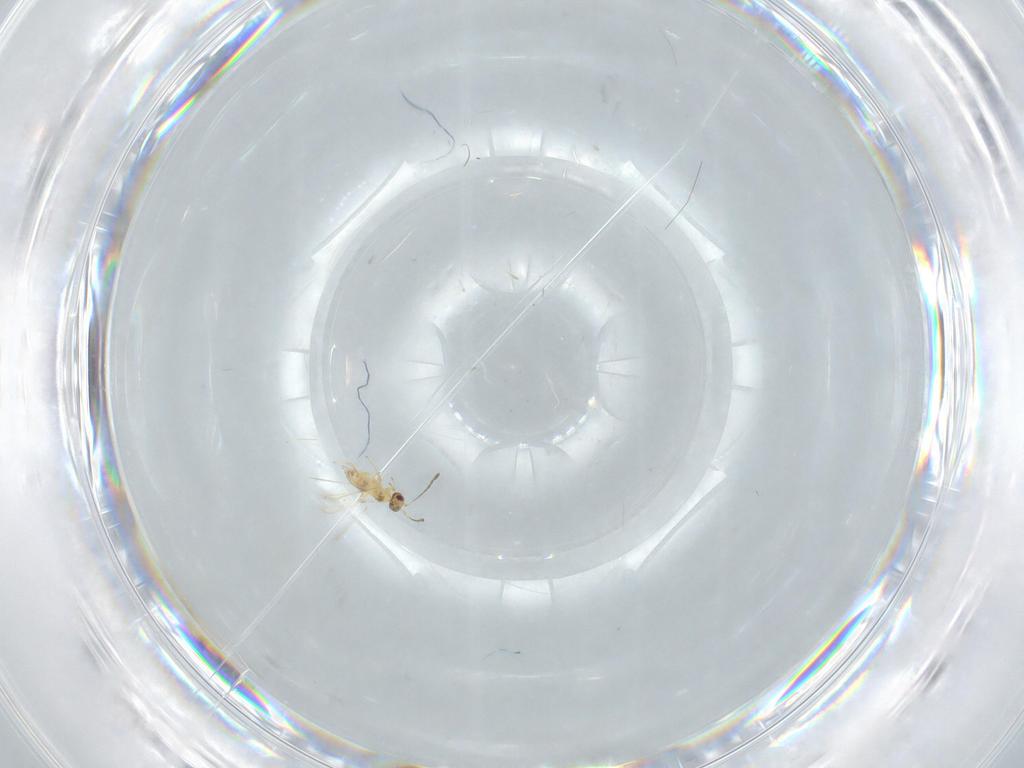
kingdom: Animalia
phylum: Arthropoda
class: Insecta
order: Hymenoptera
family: Mymaridae
